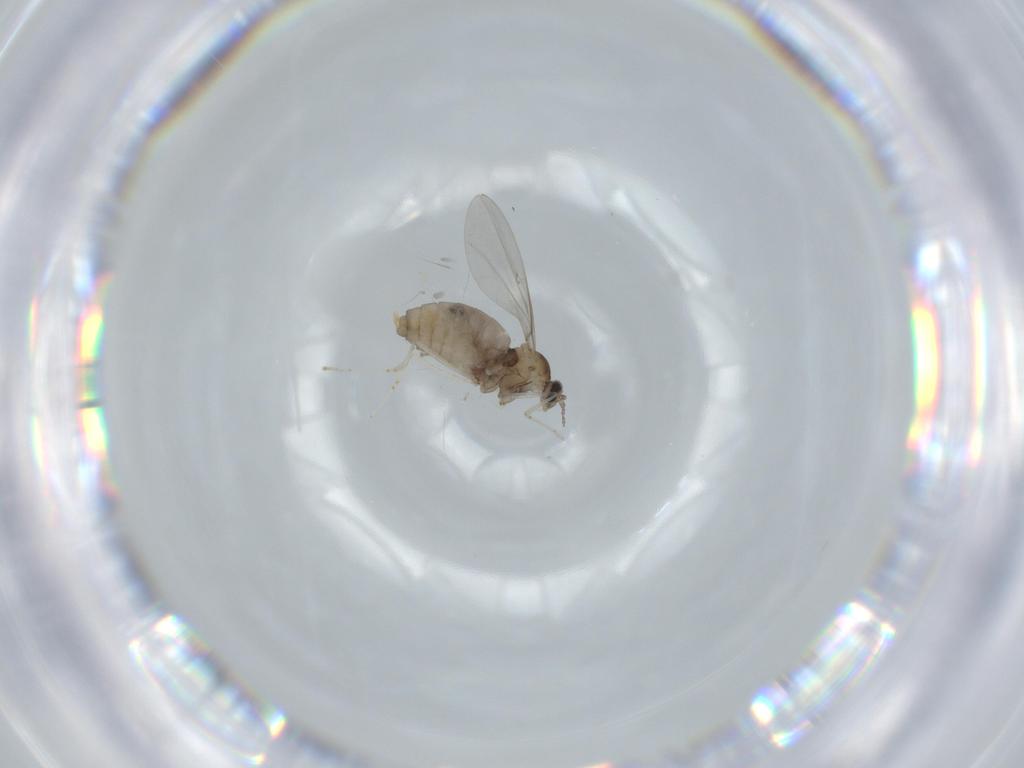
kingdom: Animalia
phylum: Arthropoda
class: Insecta
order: Diptera
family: Cecidomyiidae
